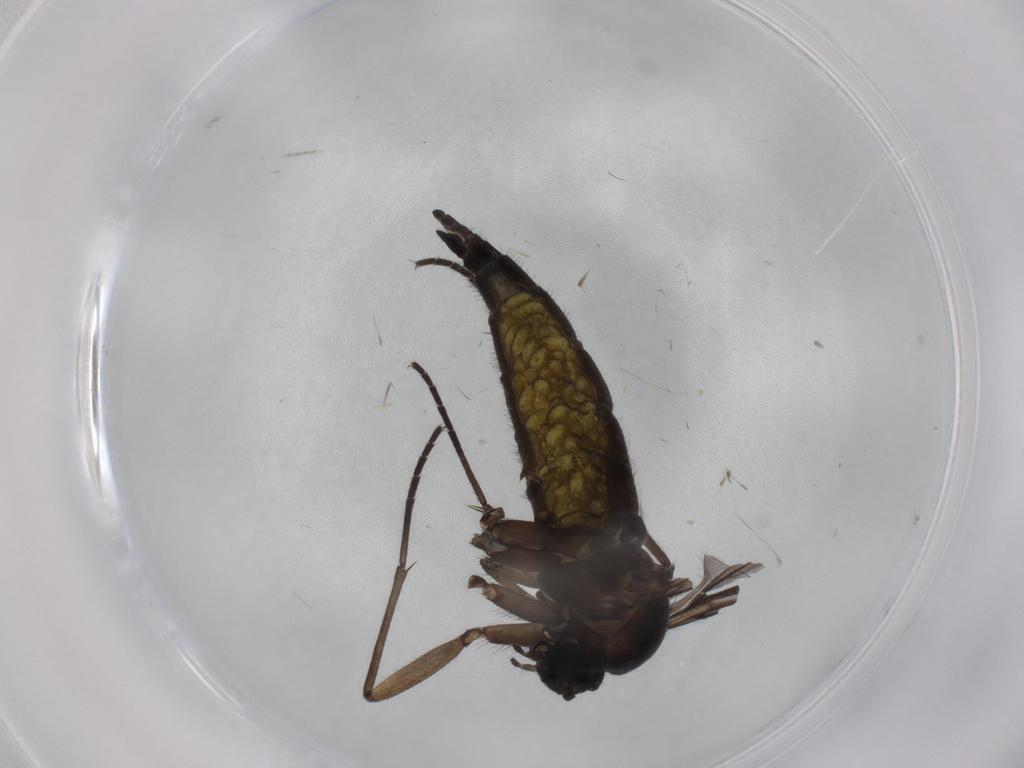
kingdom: Animalia
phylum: Arthropoda
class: Insecta
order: Diptera
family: Sciaridae
